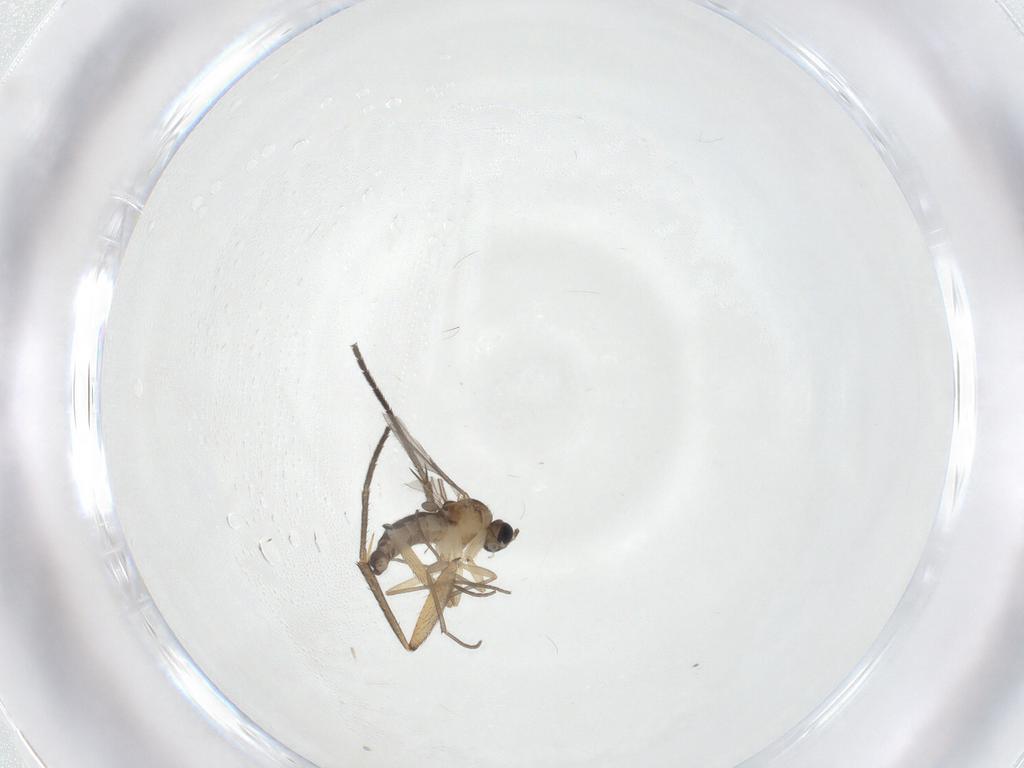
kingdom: Animalia
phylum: Arthropoda
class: Insecta
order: Diptera
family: Sciaridae
